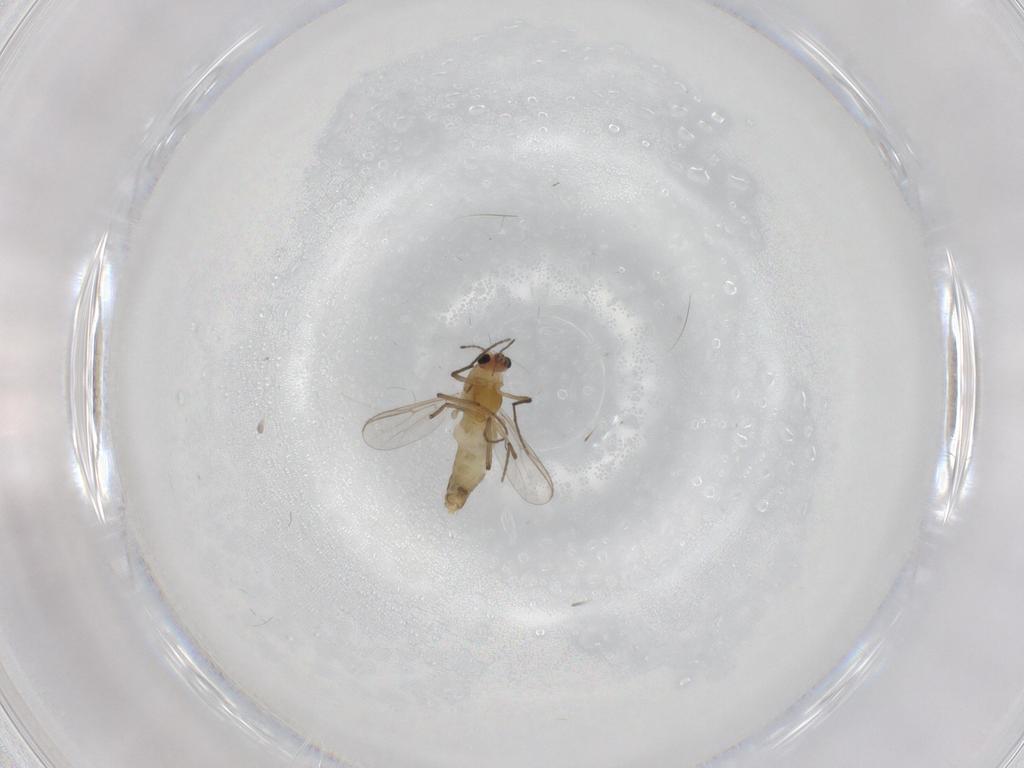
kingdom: Animalia
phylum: Arthropoda
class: Insecta
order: Diptera
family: Chironomidae
